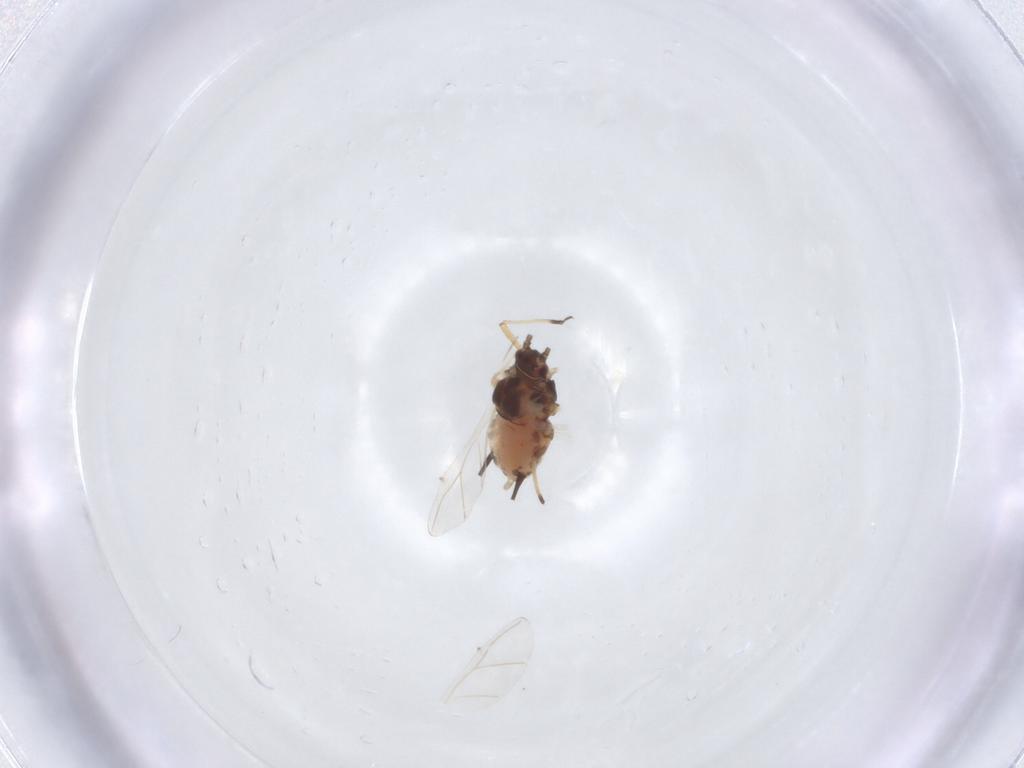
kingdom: Animalia
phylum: Arthropoda
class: Insecta
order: Hemiptera
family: Aphididae
